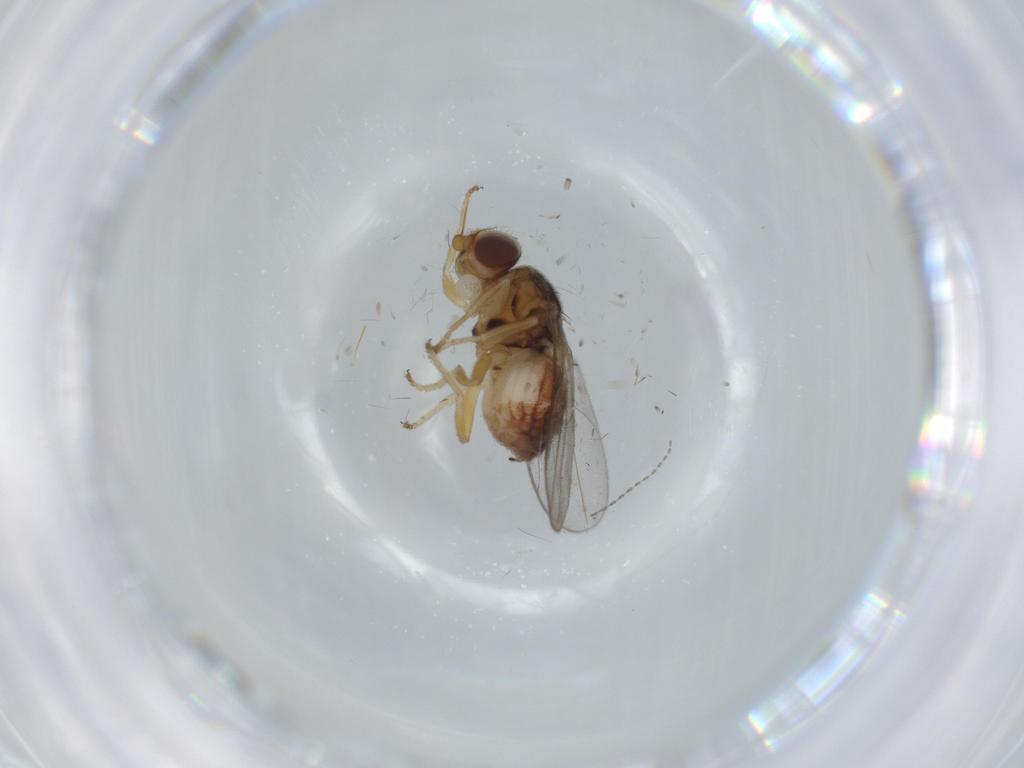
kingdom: Animalia
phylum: Arthropoda
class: Insecta
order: Diptera
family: Chloropidae
